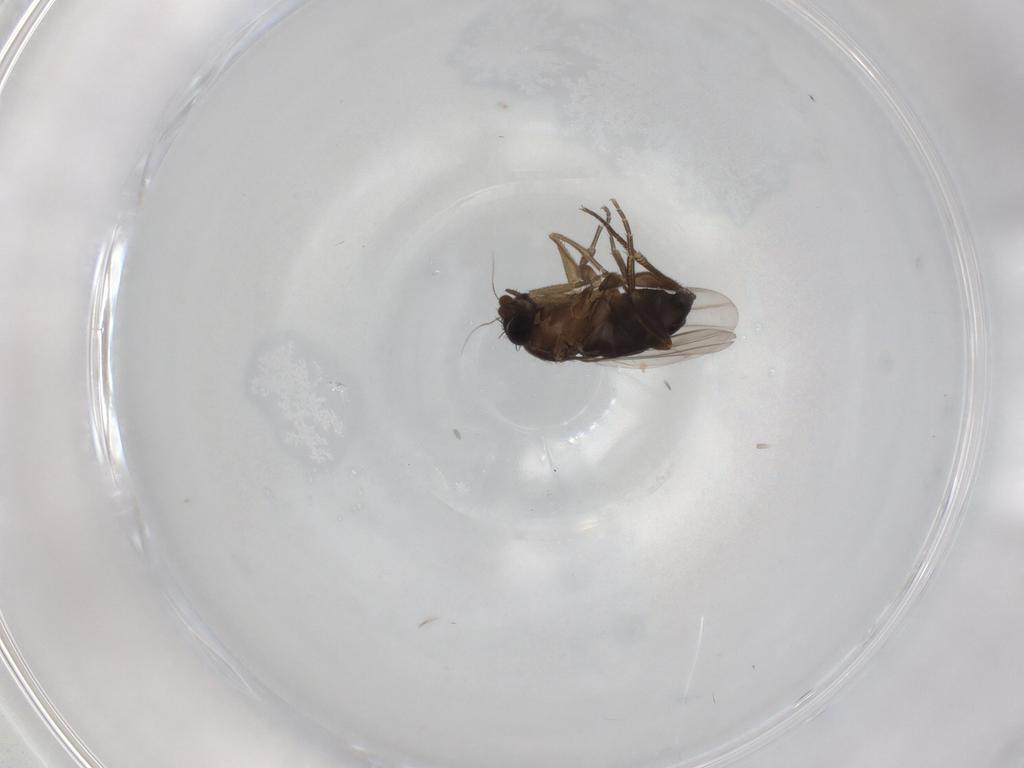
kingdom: Animalia
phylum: Arthropoda
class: Insecta
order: Diptera
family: Phoridae
